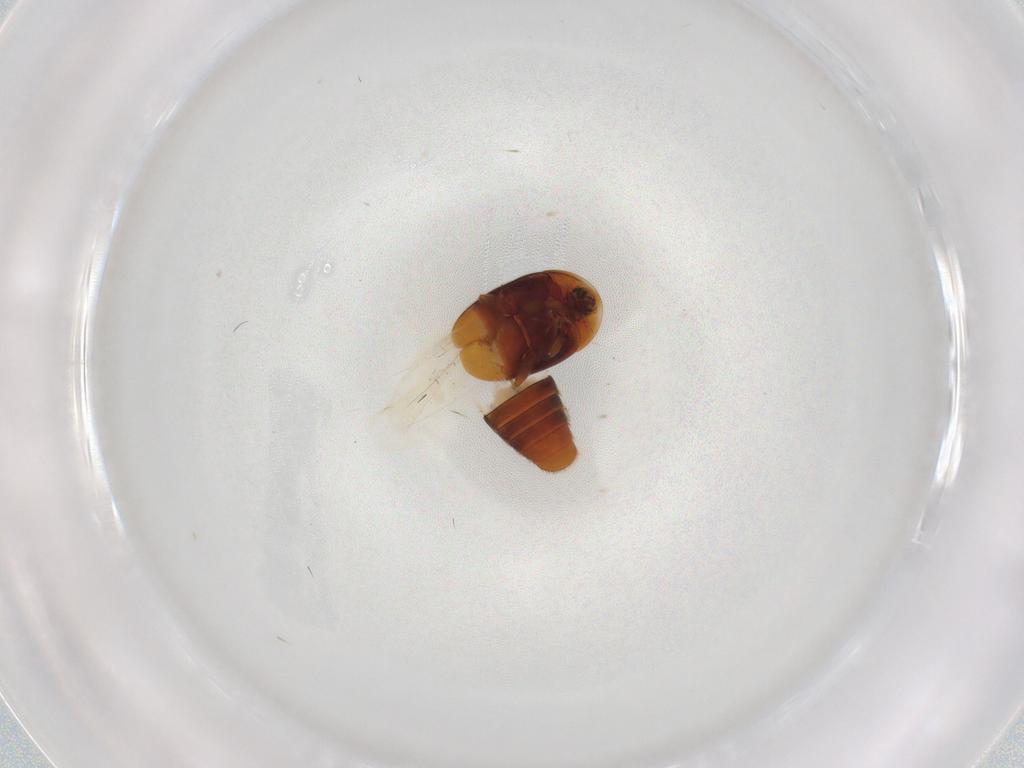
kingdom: Animalia
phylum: Arthropoda
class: Insecta
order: Coleoptera
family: Corylophidae
